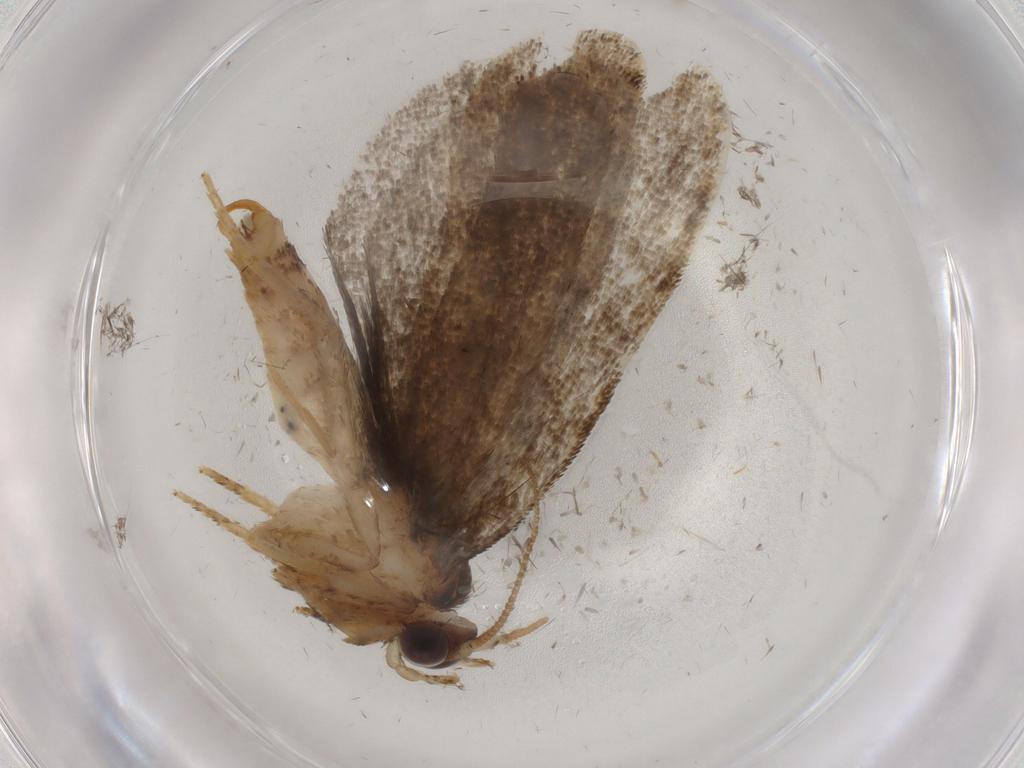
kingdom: Animalia
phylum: Arthropoda
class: Insecta
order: Lepidoptera
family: Tineidae
